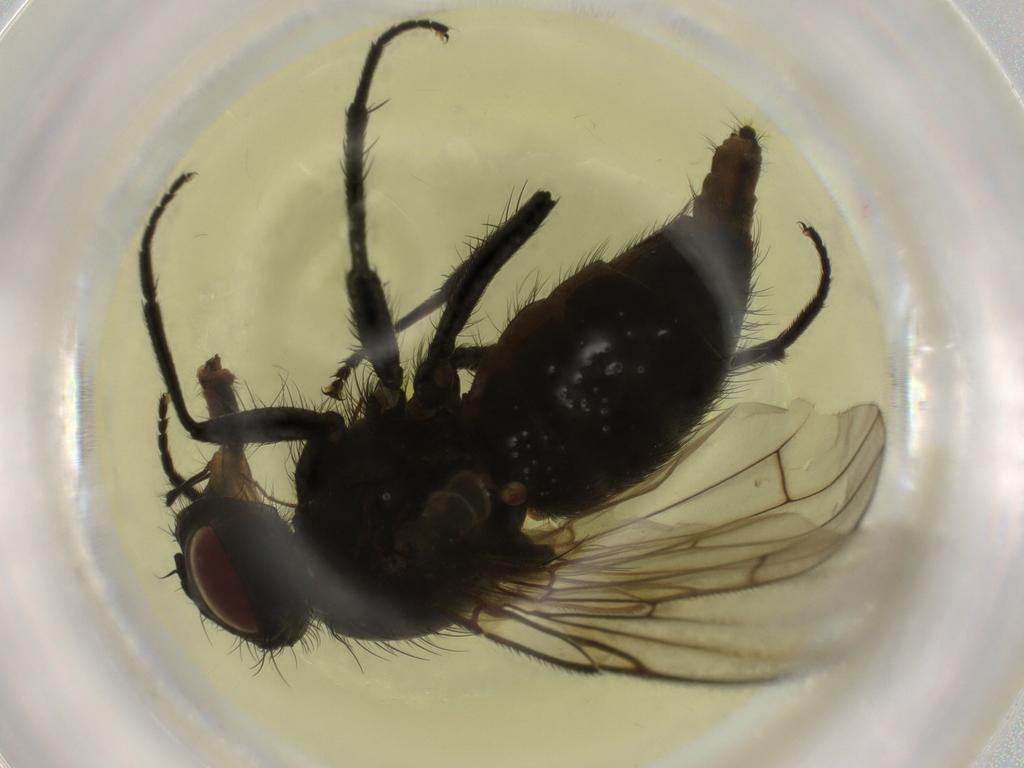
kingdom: Animalia
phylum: Arthropoda
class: Insecta
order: Diptera
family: Muscidae
